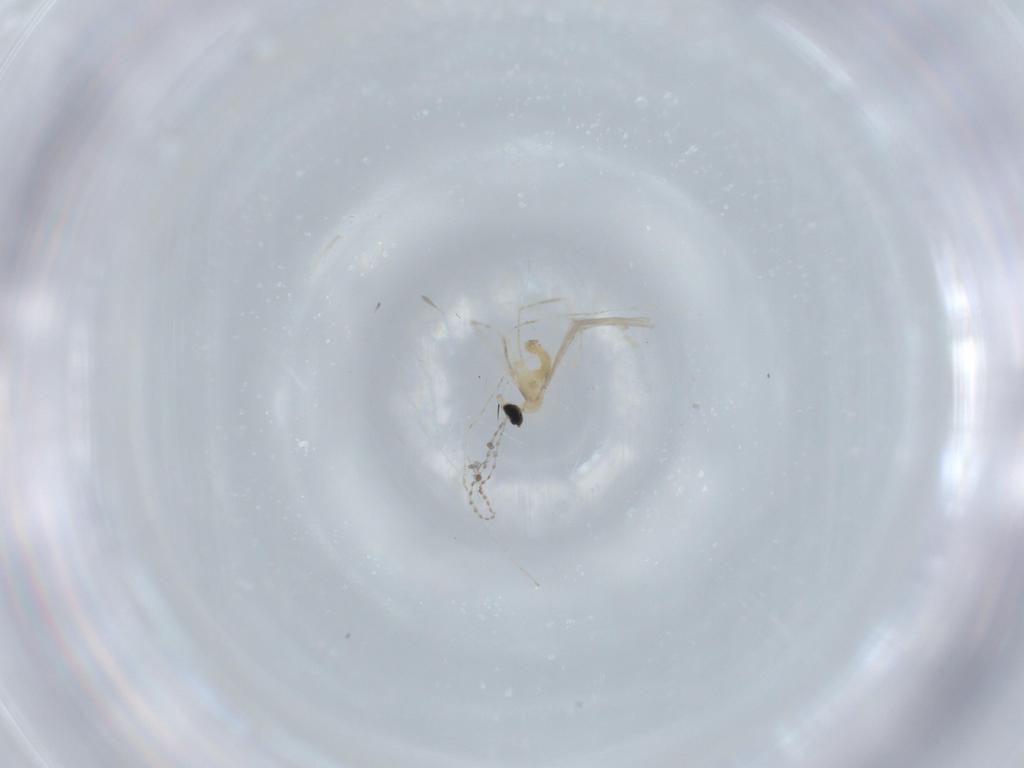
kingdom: Animalia
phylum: Arthropoda
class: Insecta
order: Diptera
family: Cecidomyiidae
